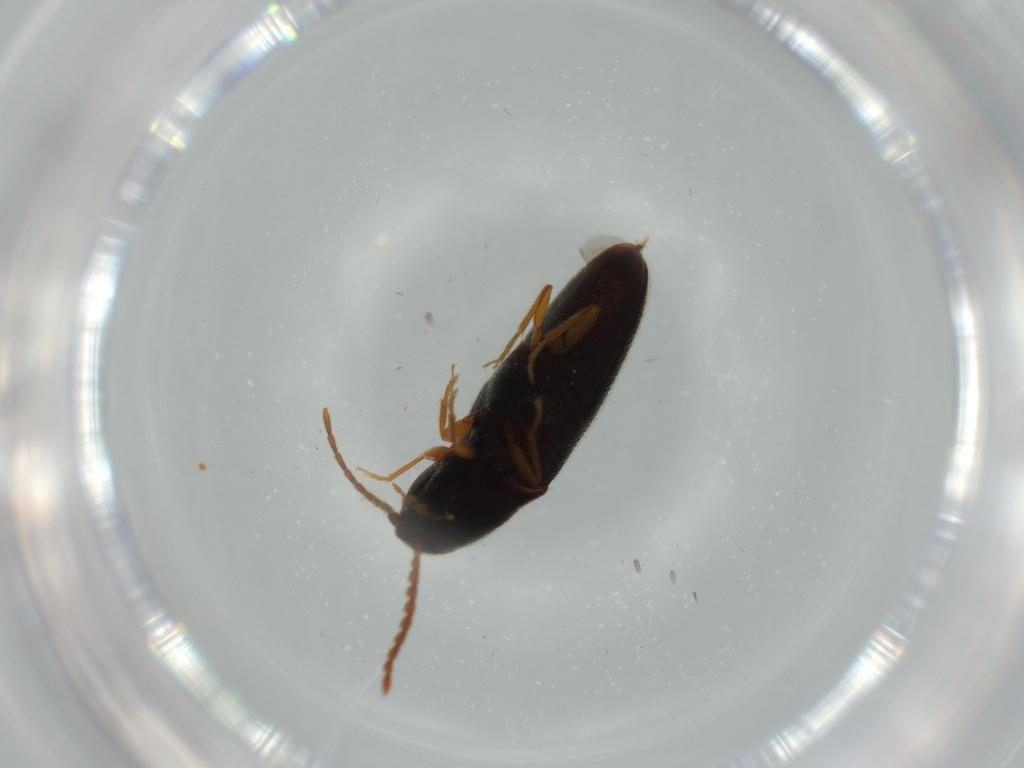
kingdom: Animalia
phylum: Arthropoda
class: Insecta
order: Coleoptera
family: Elateridae
